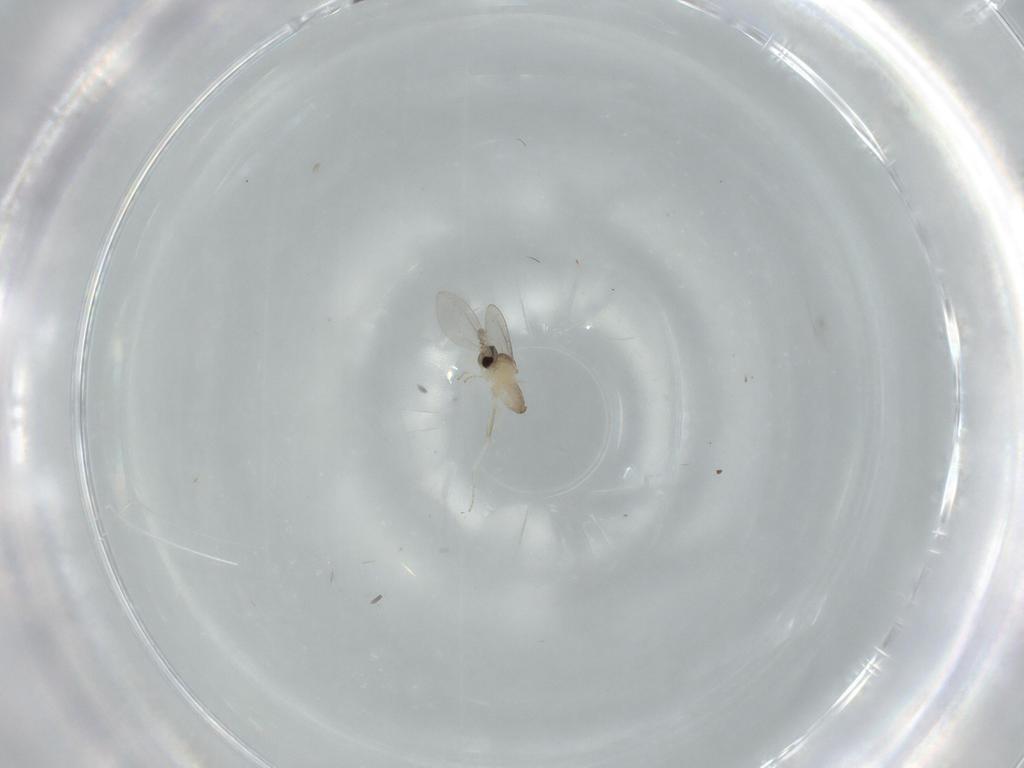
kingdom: Animalia
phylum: Arthropoda
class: Insecta
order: Diptera
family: Cecidomyiidae
